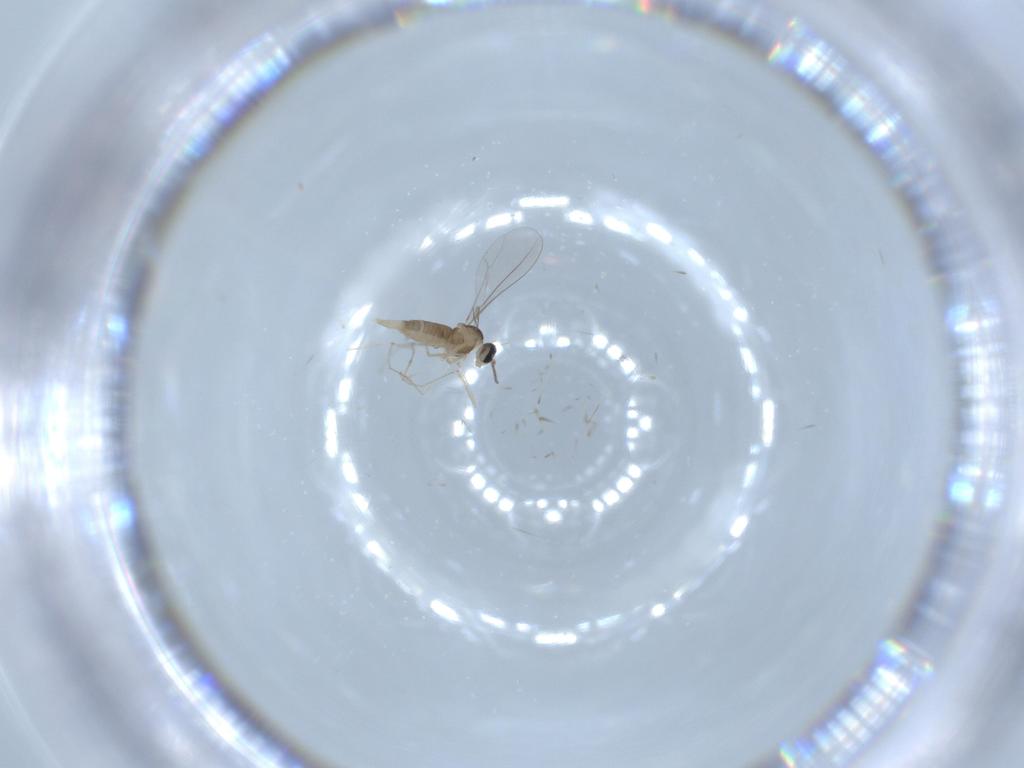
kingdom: Animalia
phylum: Arthropoda
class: Insecta
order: Diptera
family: Cecidomyiidae
